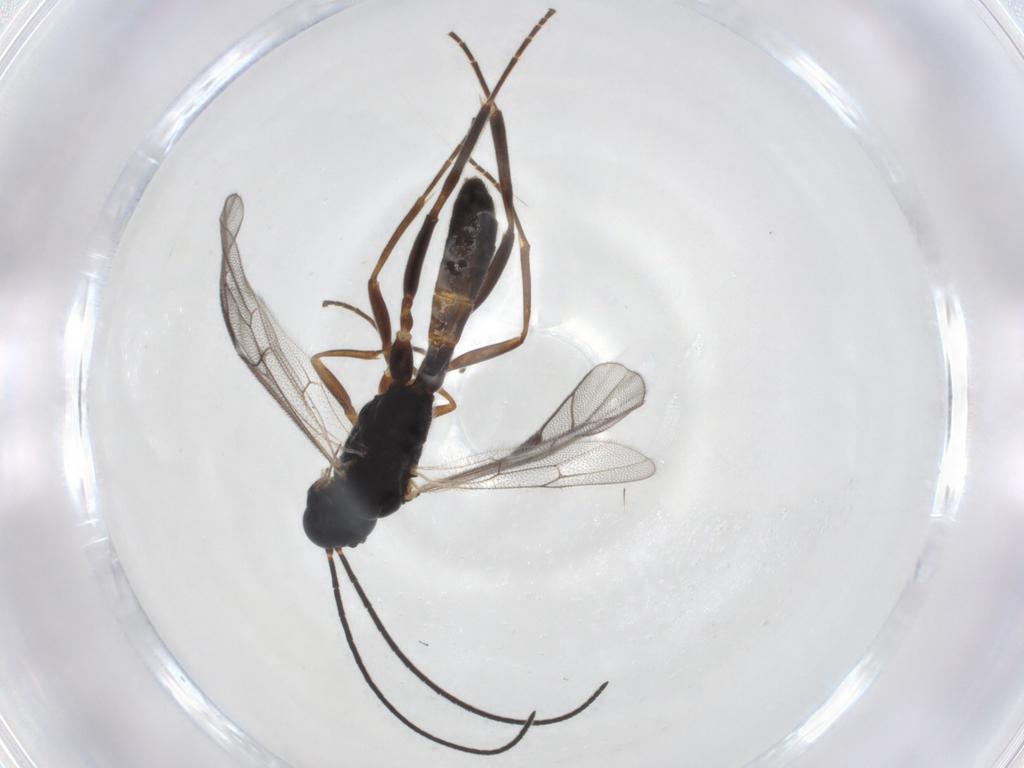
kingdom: Animalia
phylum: Arthropoda
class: Insecta
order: Hymenoptera
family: Ichneumonidae
